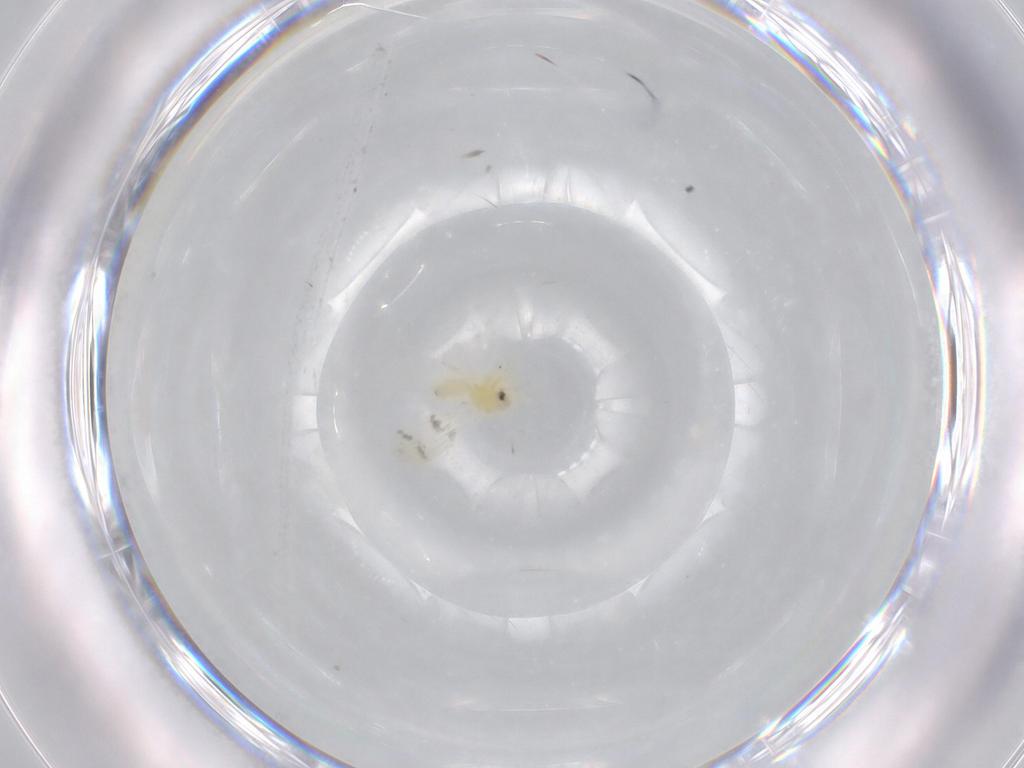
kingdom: Animalia
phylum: Arthropoda
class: Insecta
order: Hemiptera
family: Aleyrodidae
